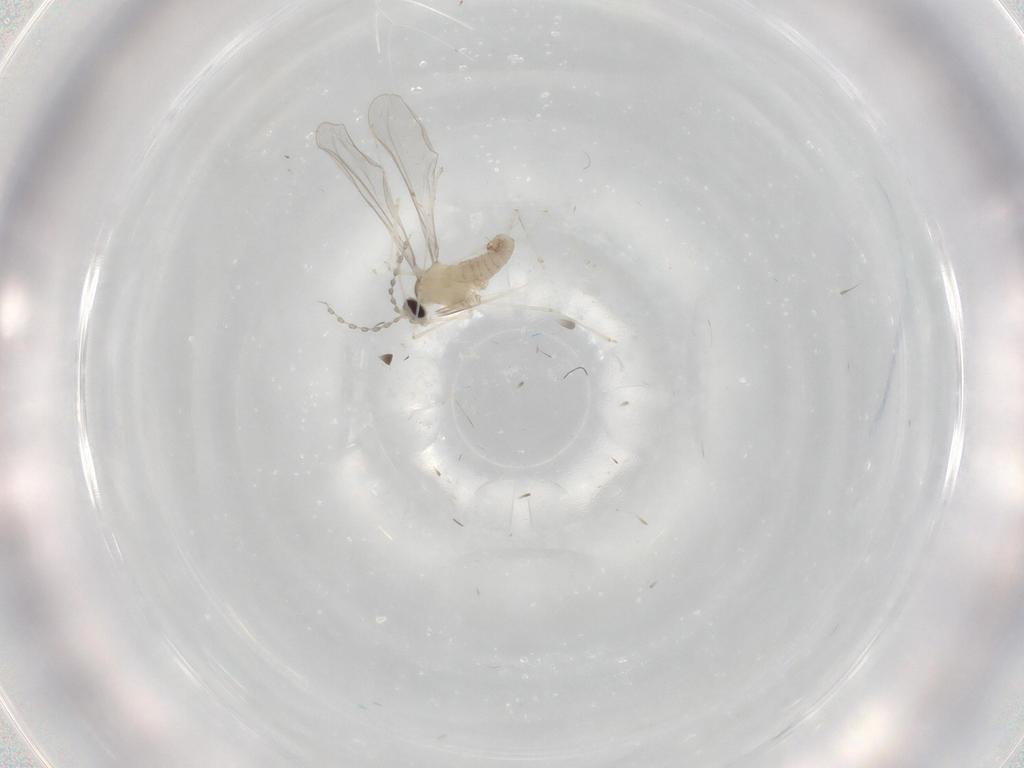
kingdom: Animalia
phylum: Arthropoda
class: Insecta
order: Diptera
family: Cecidomyiidae
